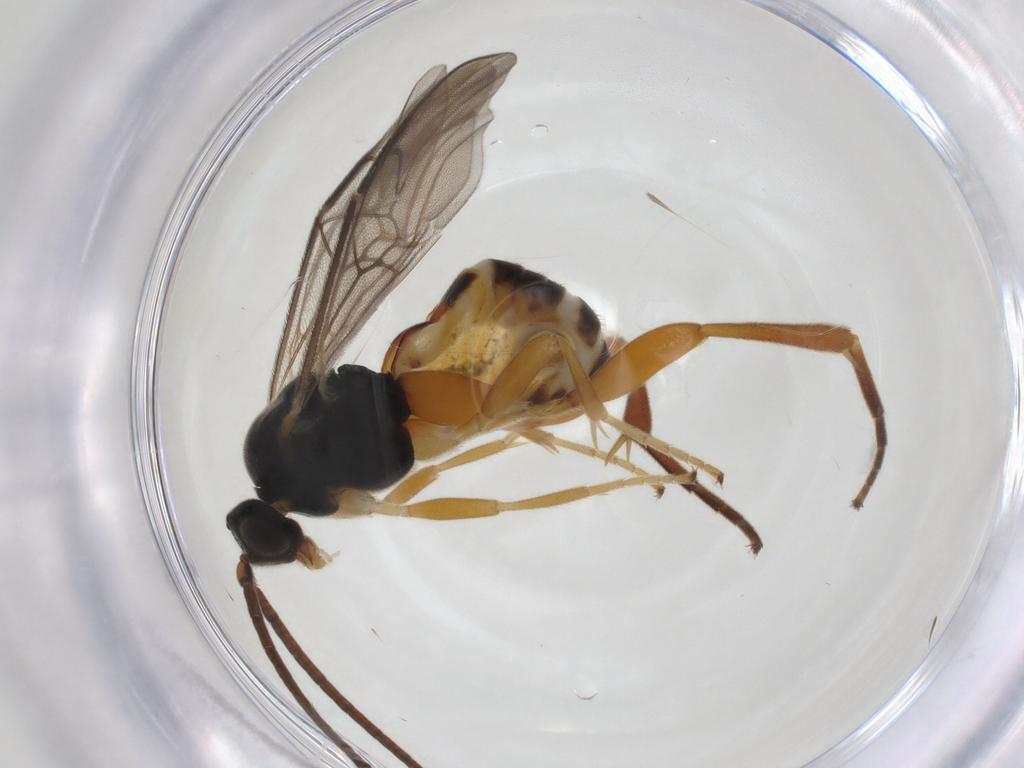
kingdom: Animalia
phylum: Arthropoda
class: Insecta
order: Hymenoptera
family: Braconidae
